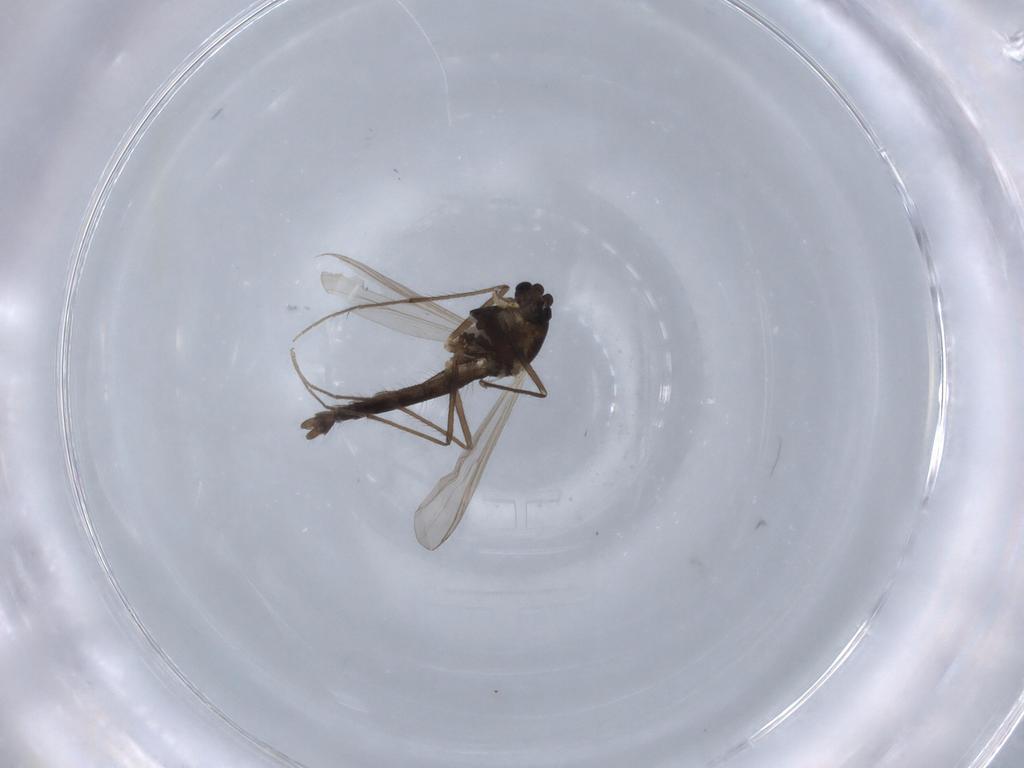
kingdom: Animalia
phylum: Arthropoda
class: Insecta
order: Diptera
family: Chironomidae
